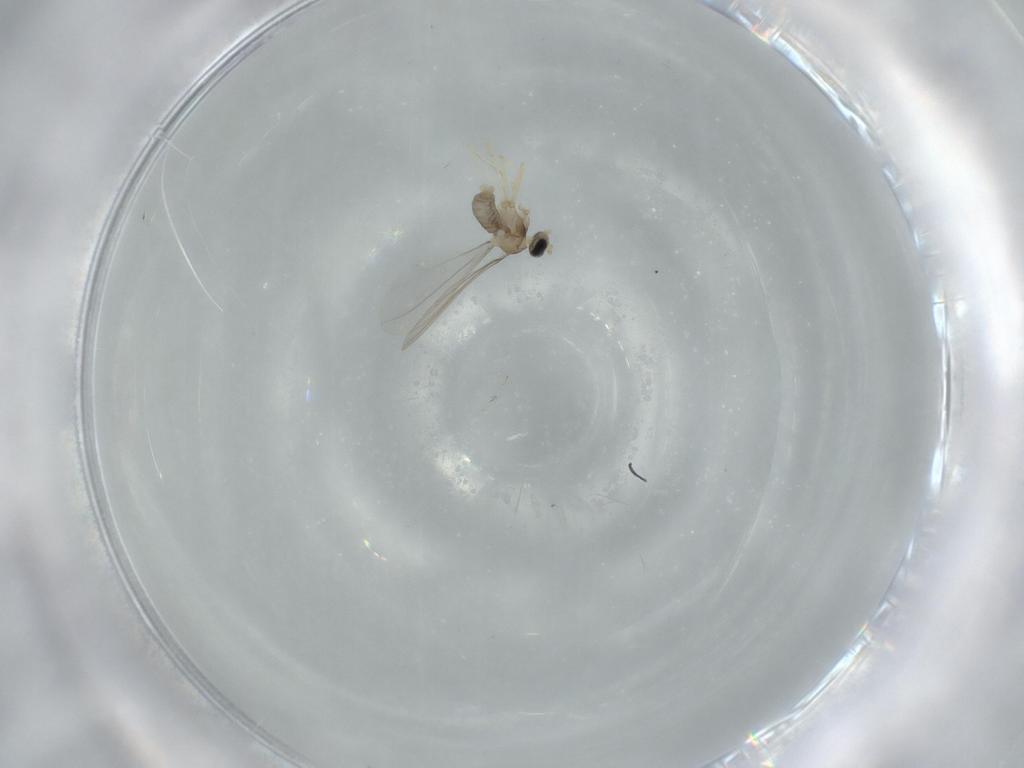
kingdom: Animalia
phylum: Arthropoda
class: Insecta
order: Diptera
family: Cecidomyiidae
